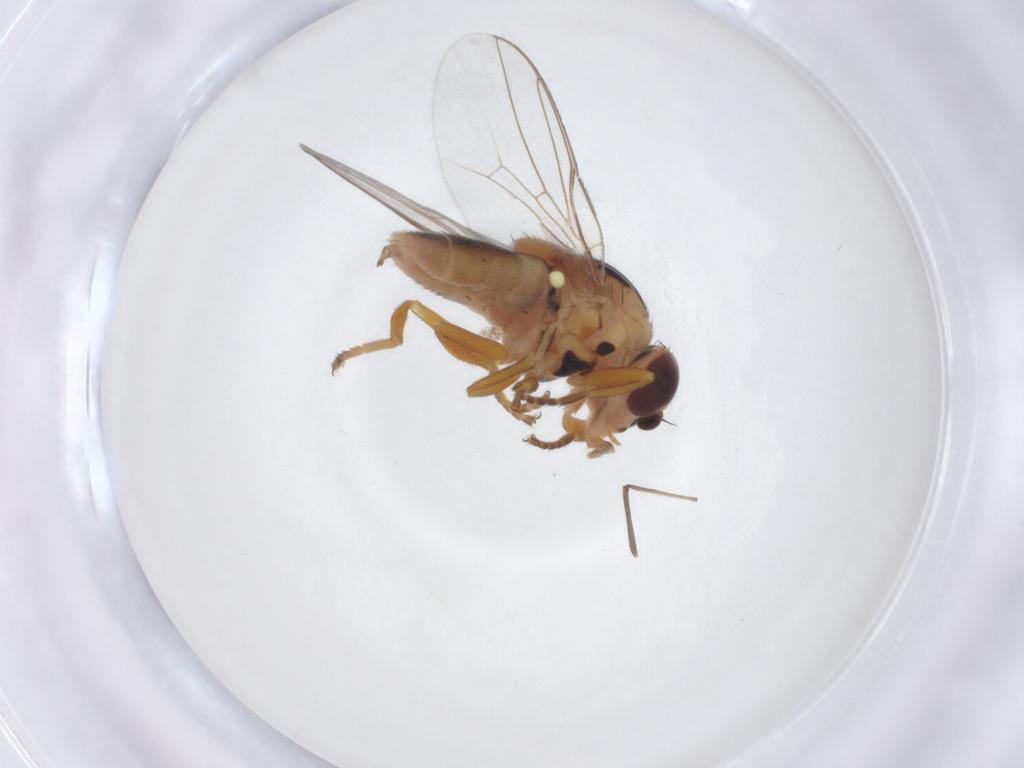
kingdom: Animalia
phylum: Arthropoda
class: Insecta
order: Diptera
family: Chloropidae
